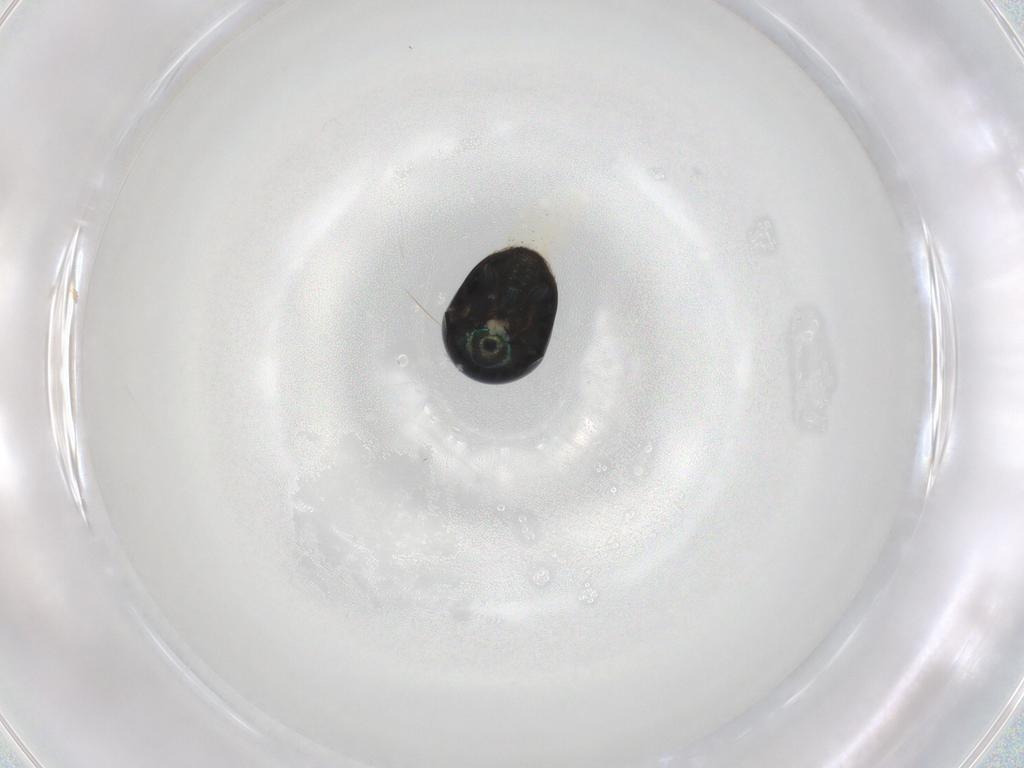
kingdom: Animalia
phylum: Arthropoda
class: Insecta
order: Coleoptera
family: Cybocephalidae
